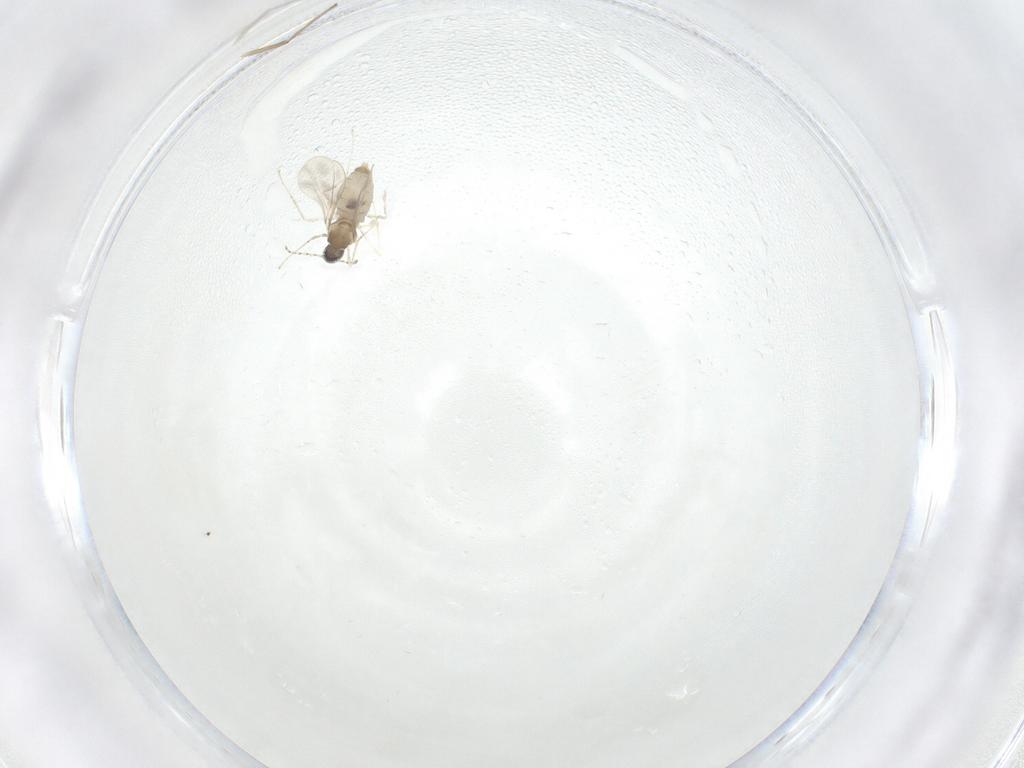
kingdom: Animalia
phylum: Arthropoda
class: Insecta
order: Diptera
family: Cecidomyiidae
